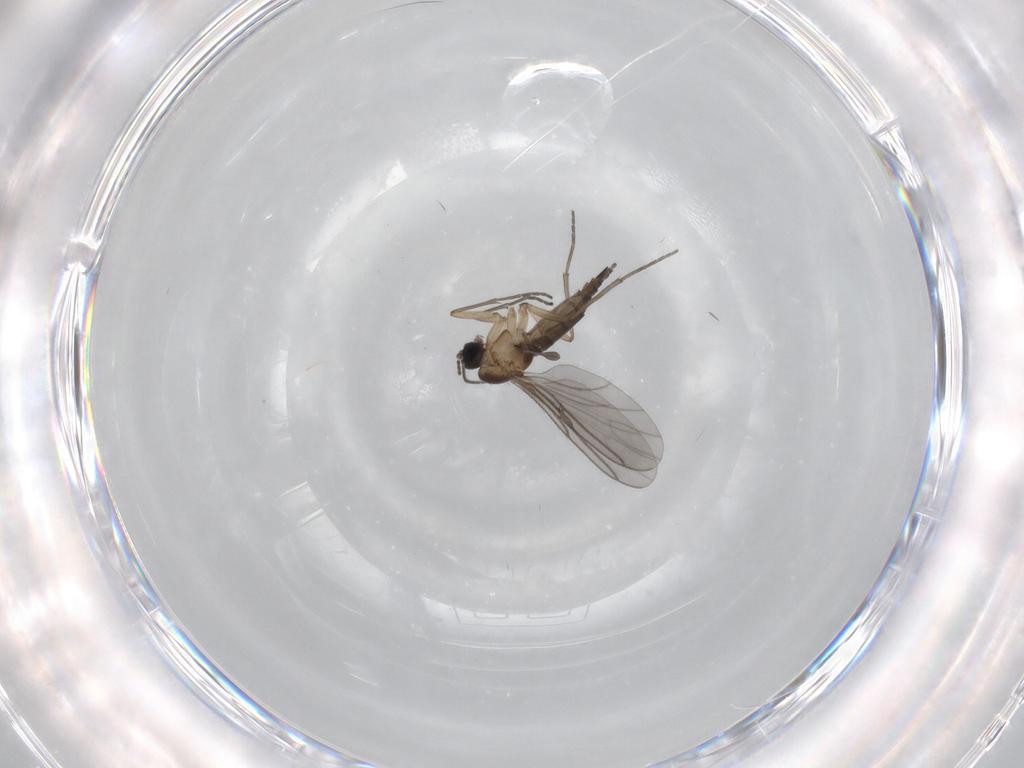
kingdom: Animalia
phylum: Arthropoda
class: Insecta
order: Diptera
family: Sciaridae
